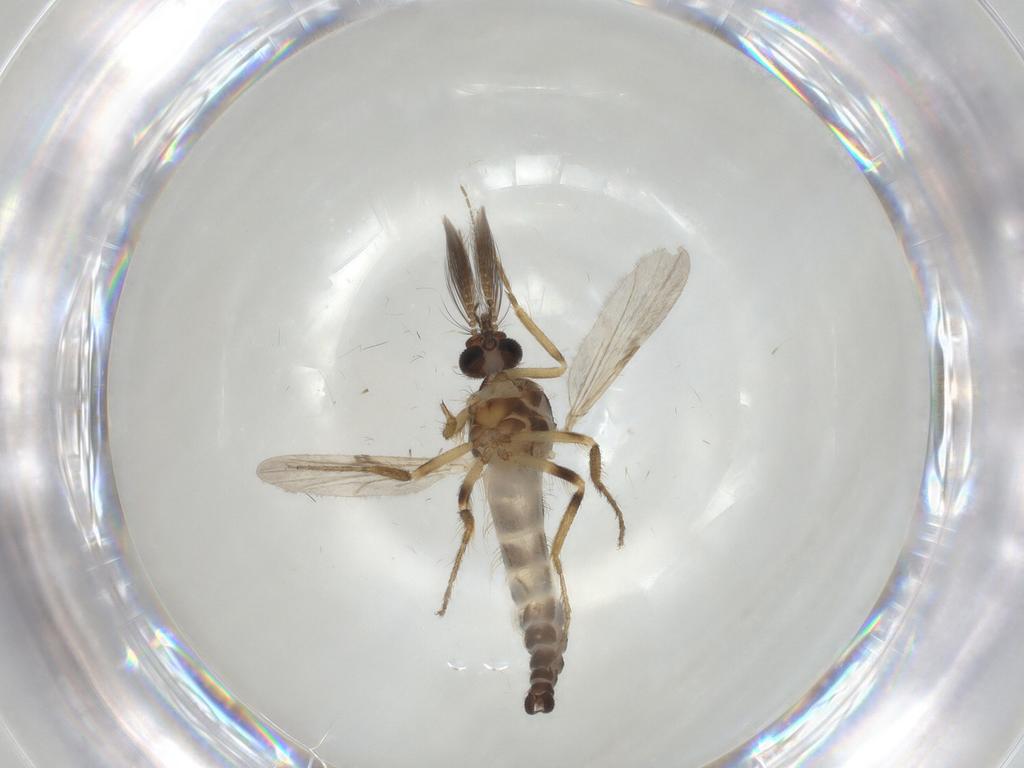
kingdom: Animalia
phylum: Arthropoda
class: Insecta
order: Diptera
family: Ceratopogonidae
